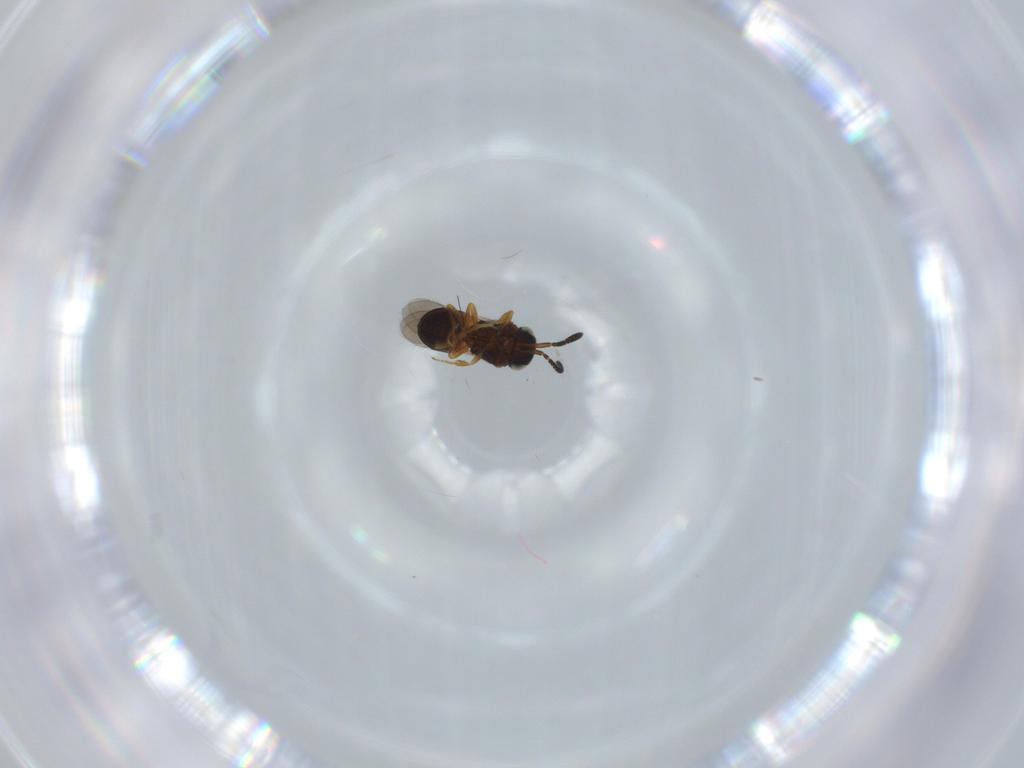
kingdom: Animalia
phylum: Arthropoda
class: Insecta
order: Hymenoptera
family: Scelionidae
